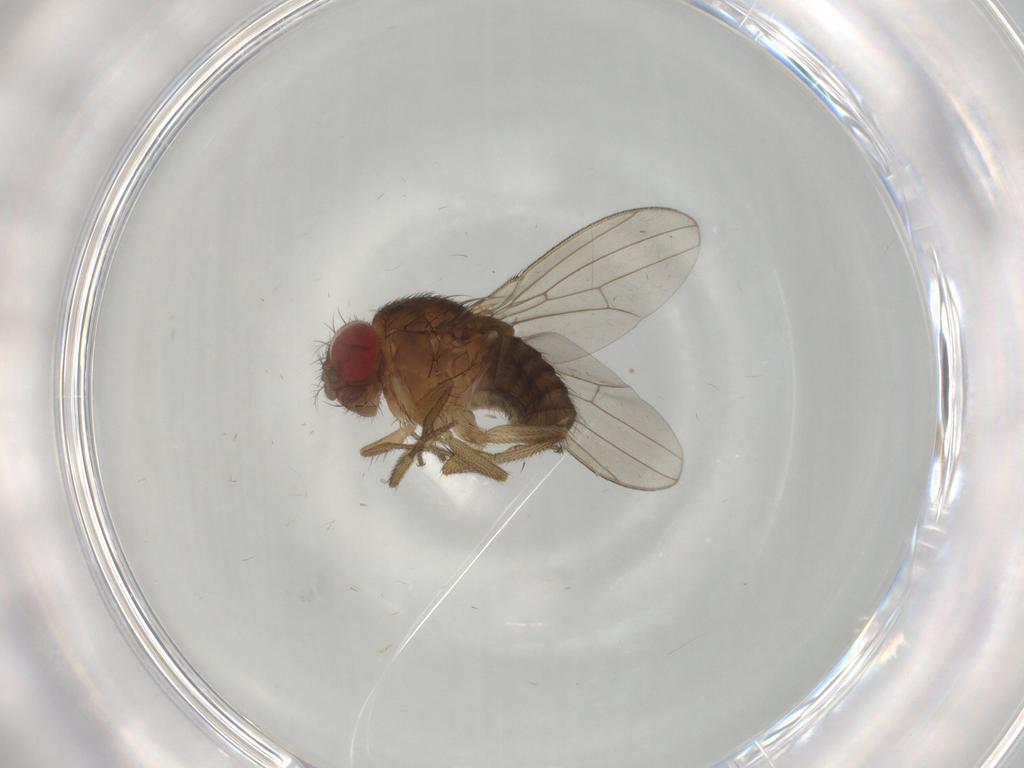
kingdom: Animalia
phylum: Arthropoda
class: Insecta
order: Diptera
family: Drosophilidae
